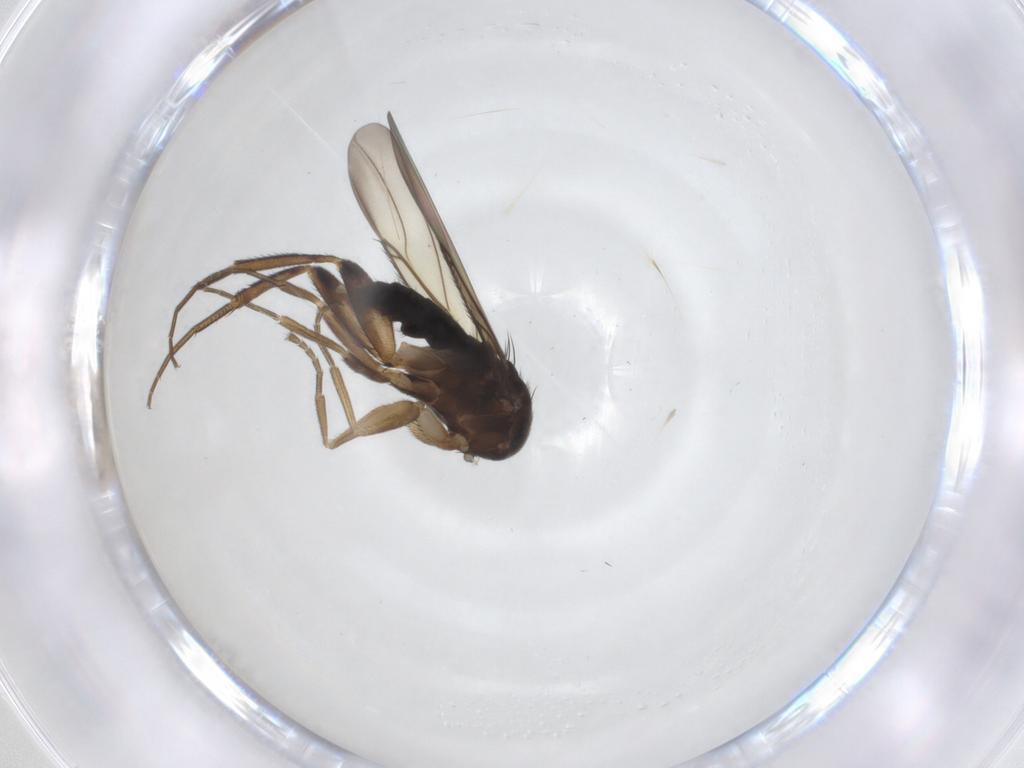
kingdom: Animalia
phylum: Arthropoda
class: Insecta
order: Diptera
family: Phoridae
